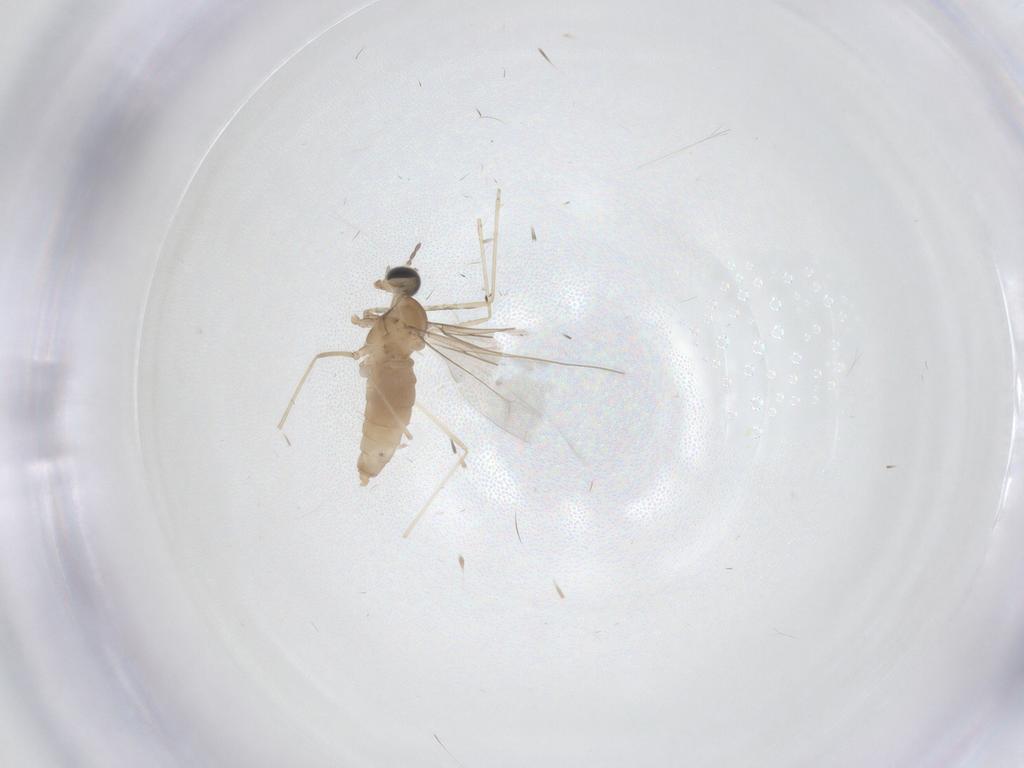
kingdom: Animalia
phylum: Arthropoda
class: Insecta
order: Diptera
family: Cecidomyiidae
